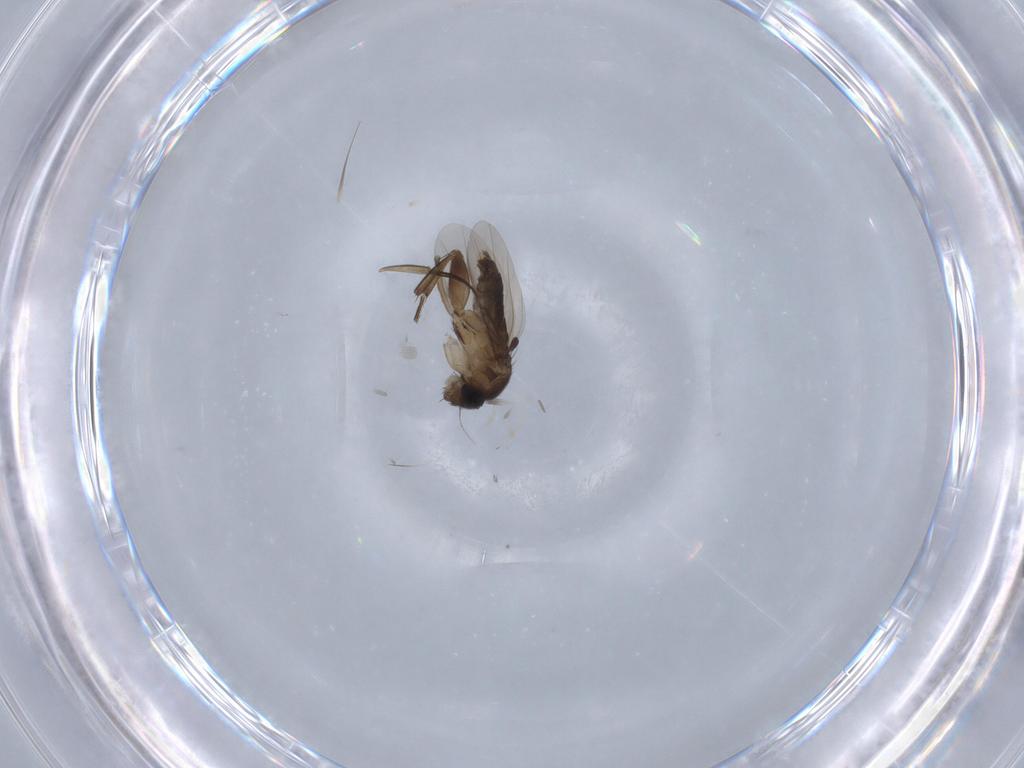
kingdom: Animalia
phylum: Arthropoda
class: Insecta
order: Diptera
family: Phoridae
